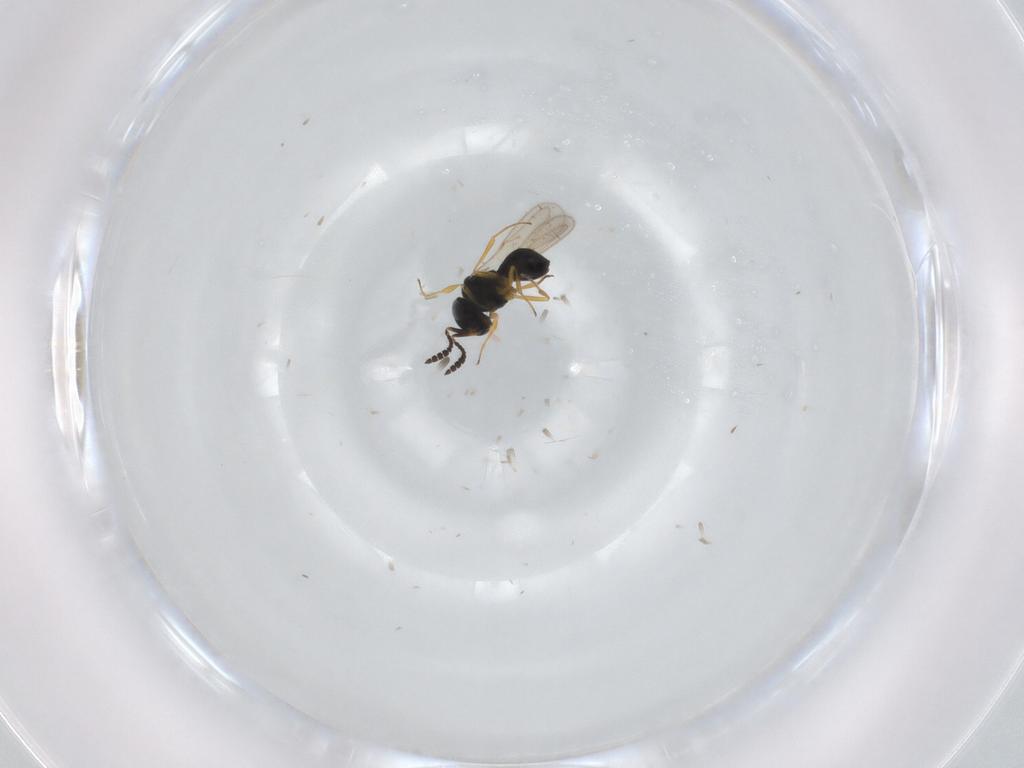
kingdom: Animalia
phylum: Arthropoda
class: Insecta
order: Hymenoptera
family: Scelionidae
